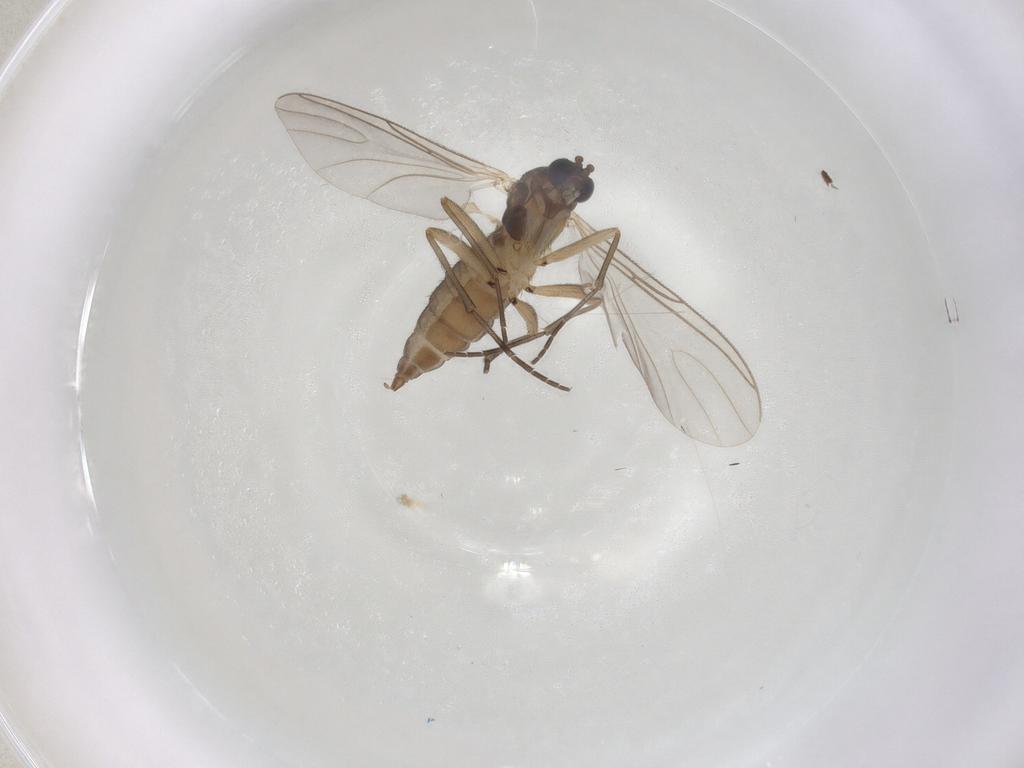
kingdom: Animalia
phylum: Arthropoda
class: Insecta
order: Diptera
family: Sciaridae
